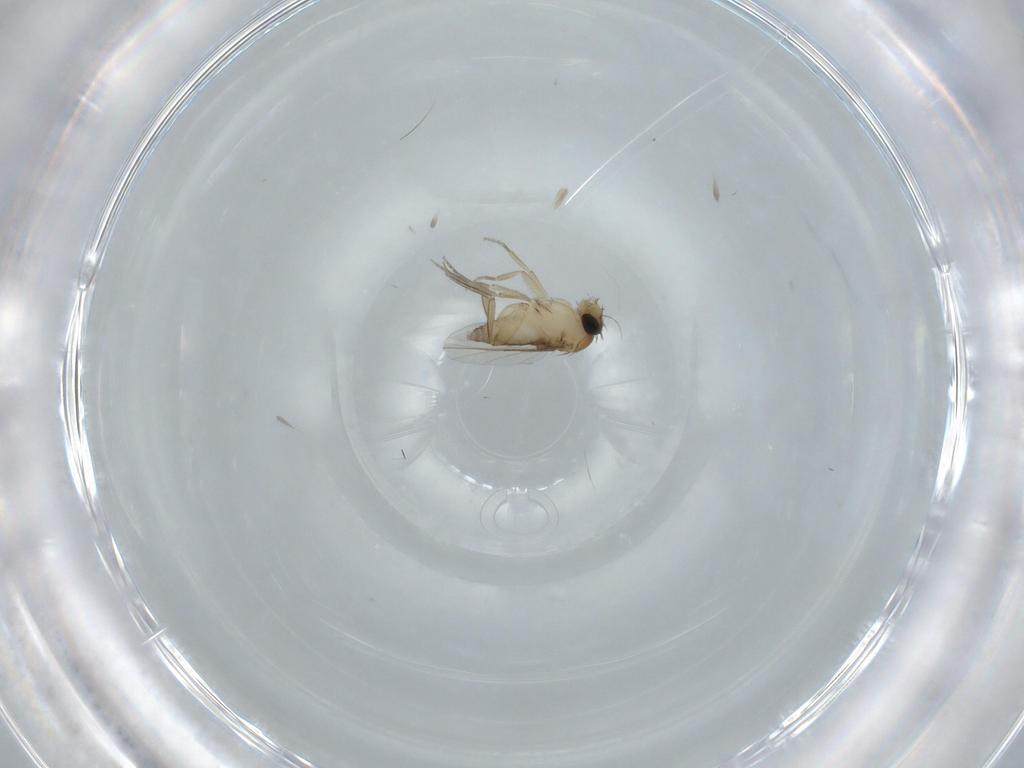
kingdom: Animalia
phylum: Arthropoda
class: Insecta
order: Diptera
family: Phoridae
